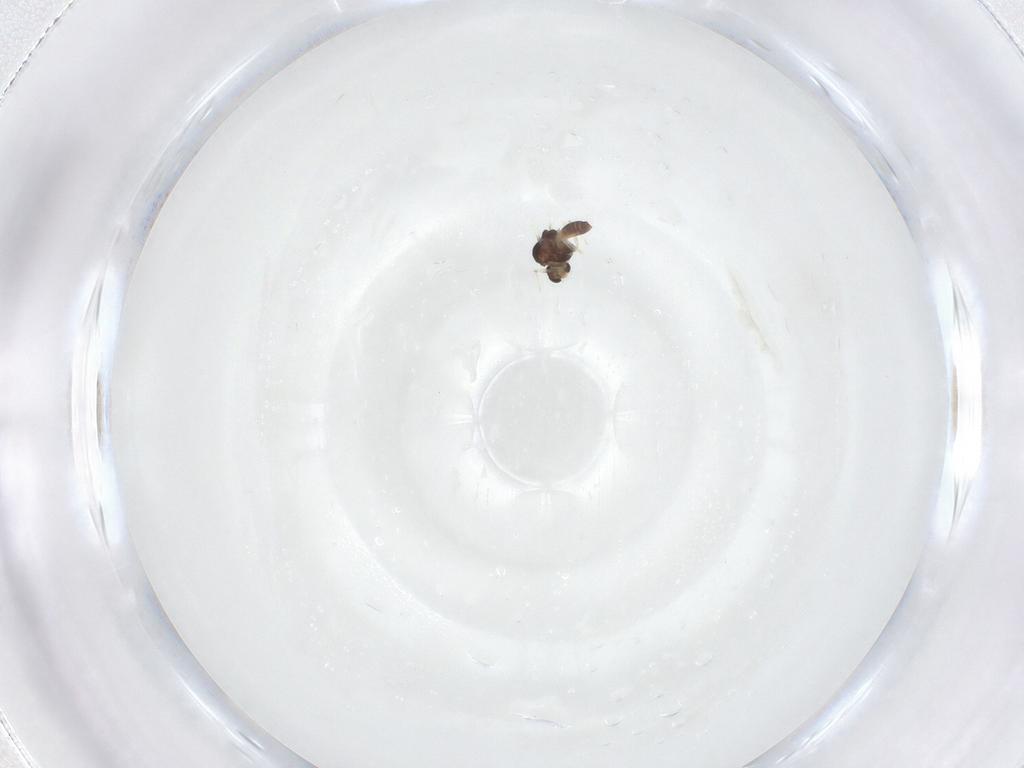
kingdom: Animalia
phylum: Arthropoda
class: Insecta
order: Diptera
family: Chironomidae
